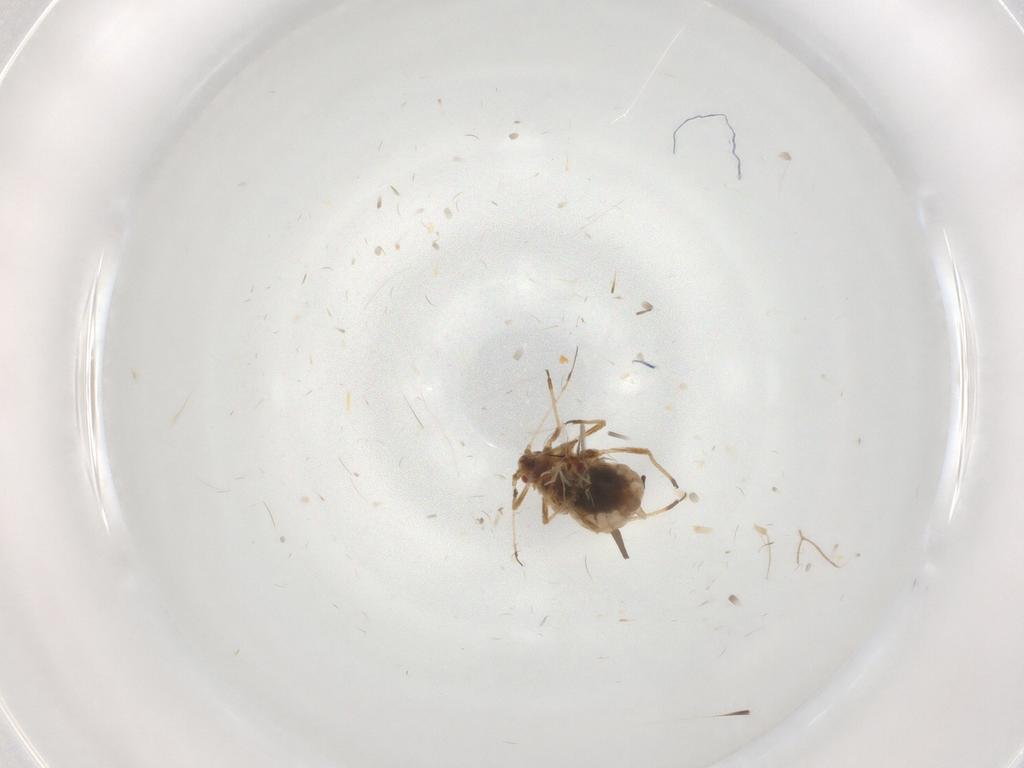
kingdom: Animalia
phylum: Arthropoda
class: Insecta
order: Hemiptera
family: Aphididae
